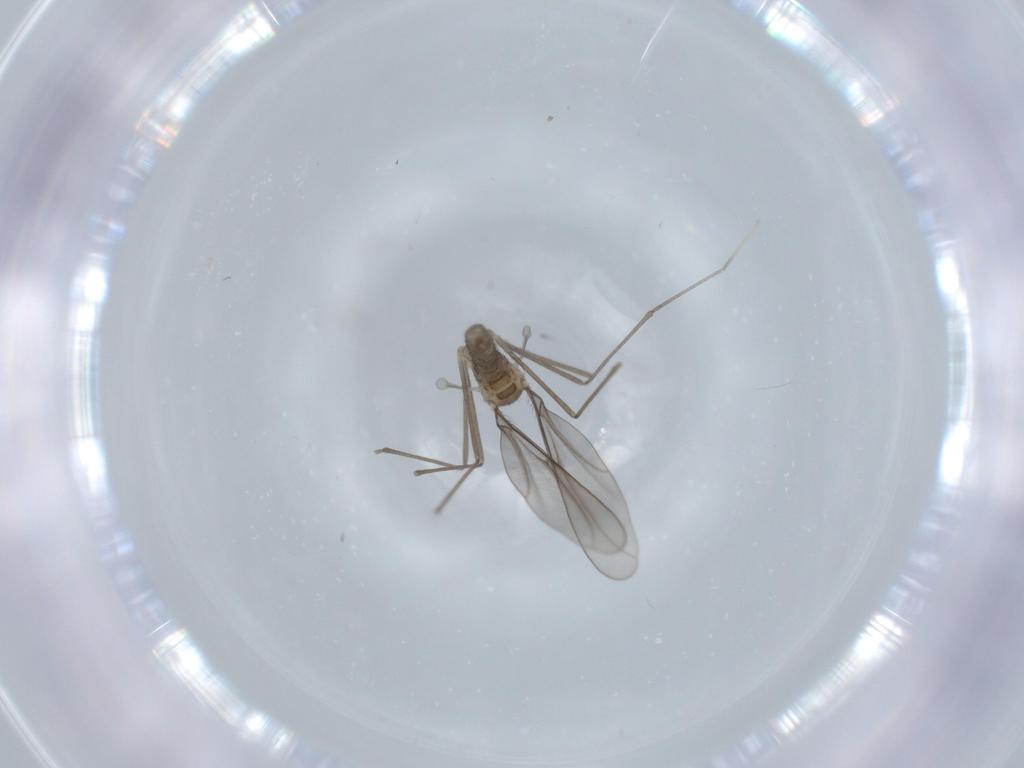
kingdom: Animalia
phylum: Arthropoda
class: Insecta
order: Diptera
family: Cecidomyiidae
